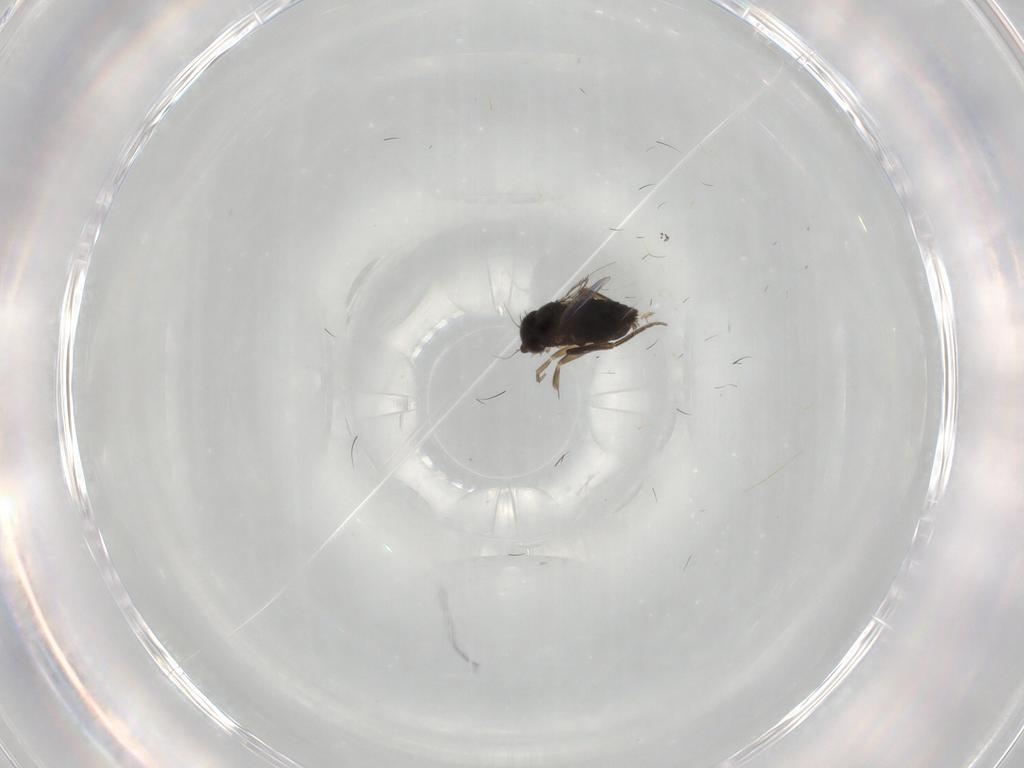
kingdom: Animalia
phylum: Arthropoda
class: Insecta
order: Diptera
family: Phoridae
